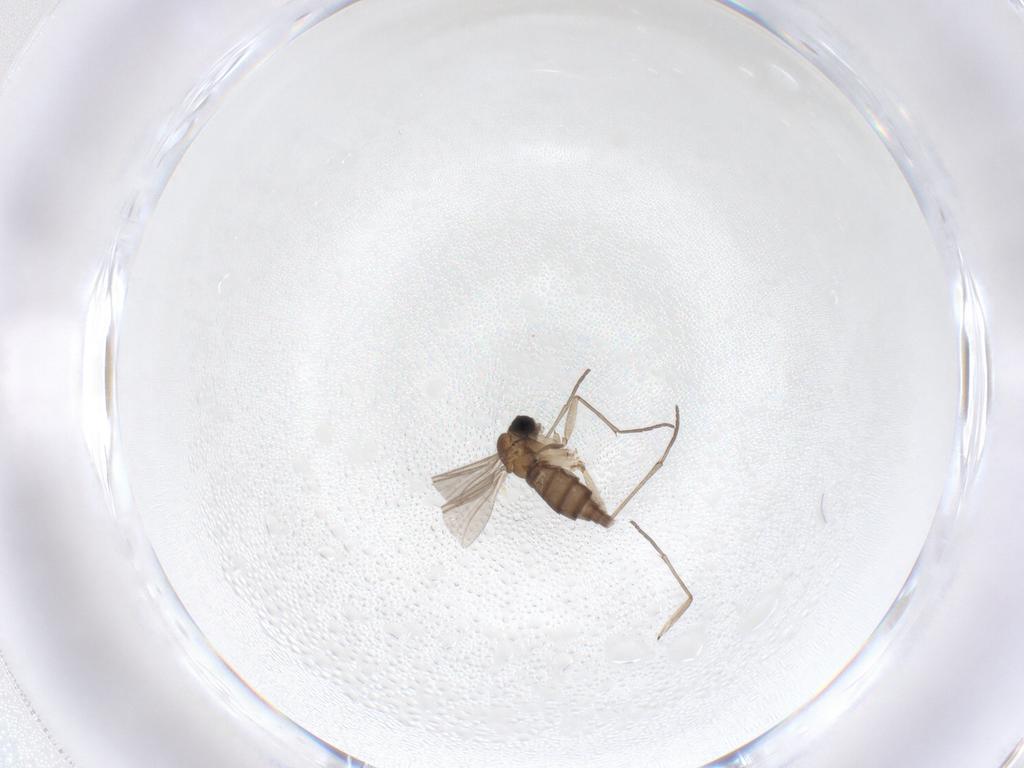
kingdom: Animalia
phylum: Arthropoda
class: Insecta
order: Diptera
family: Sciaridae
